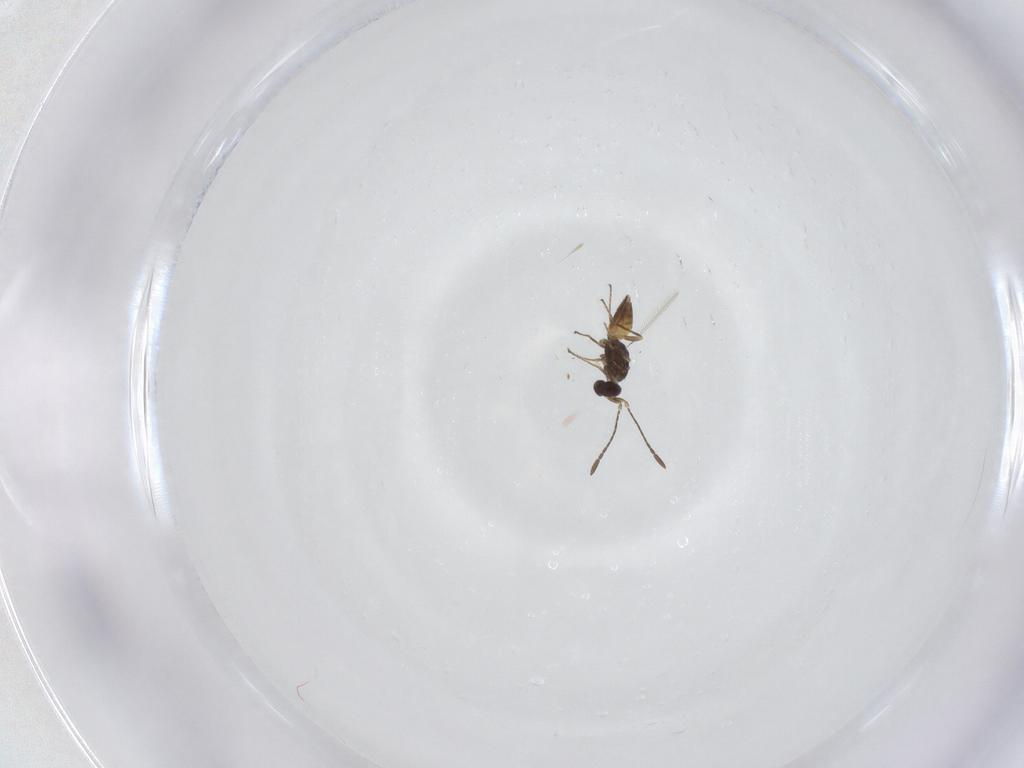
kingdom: Animalia
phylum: Arthropoda
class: Insecta
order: Hymenoptera
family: Mymaridae
